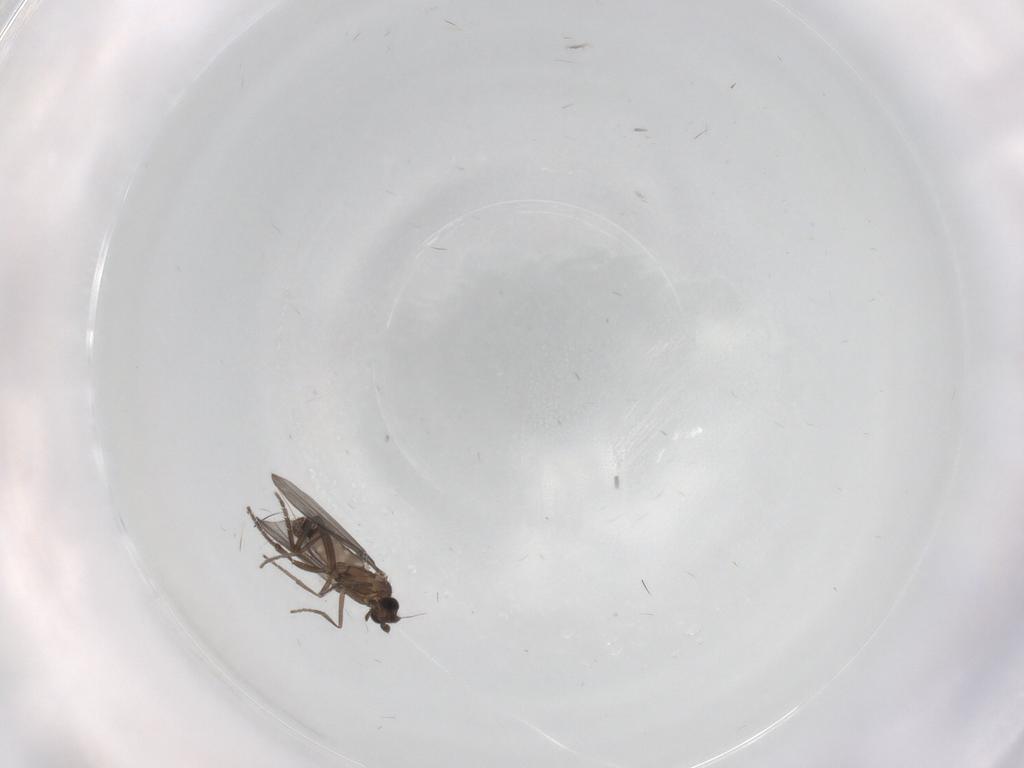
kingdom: Animalia
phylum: Arthropoda
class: Insecta
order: Diptera
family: Phoridae
